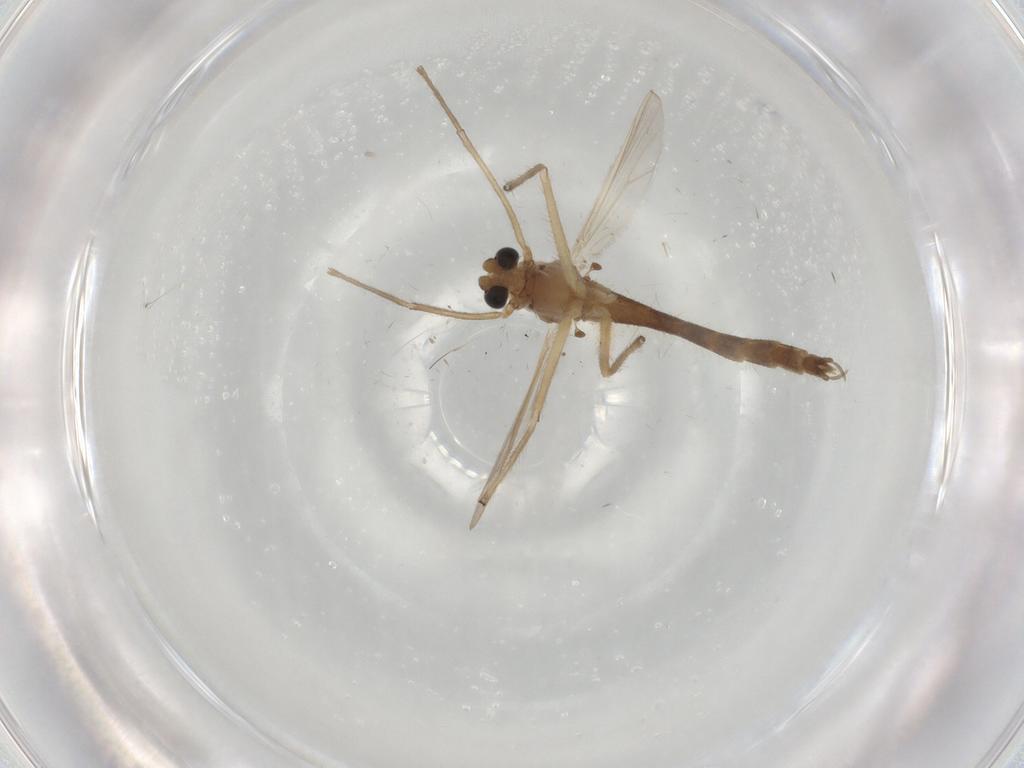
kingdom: Animalia
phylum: Arthropoda
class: Insecta
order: Diptera
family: Chironomidae
